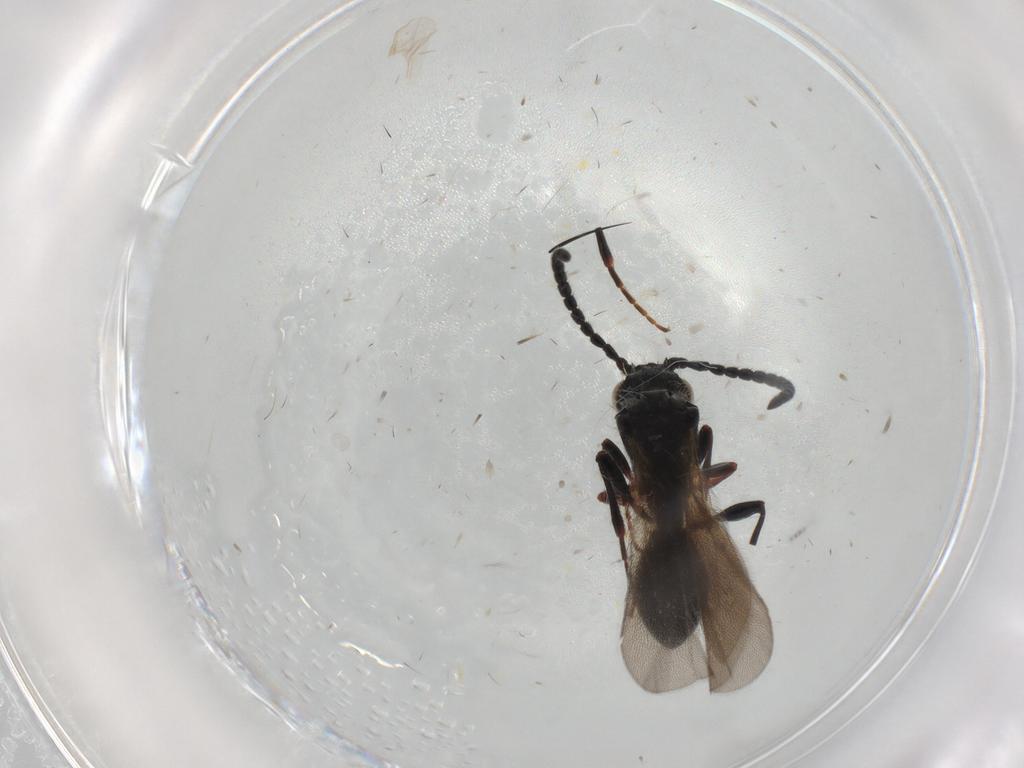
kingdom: Animalia
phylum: Arthropoda
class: Insecta
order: Hymenoptera
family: Diapriidae
